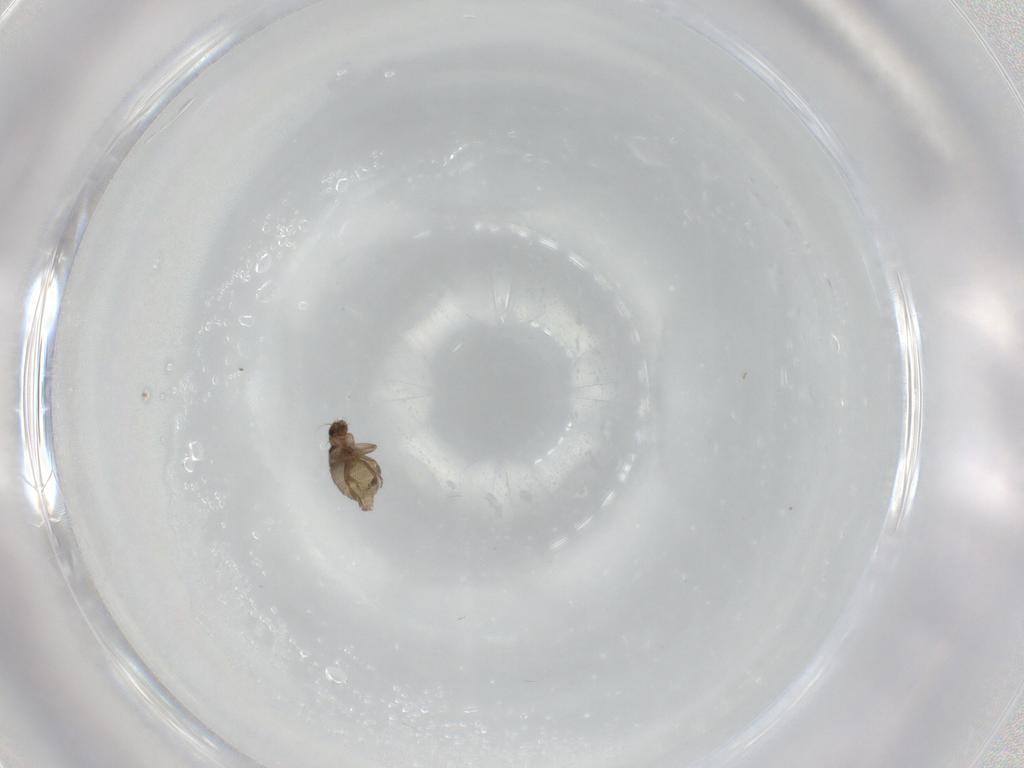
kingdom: Animalia
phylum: Arthropoda
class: Insecta
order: Diptera
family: Phoridae
